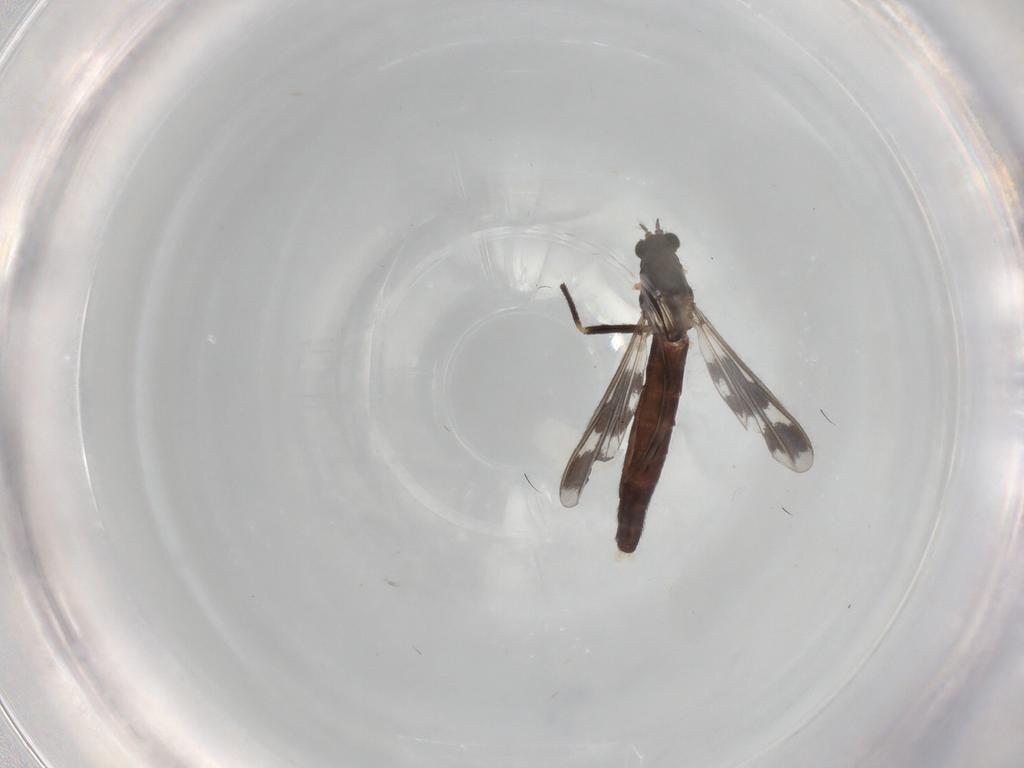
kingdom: Animalia
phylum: Arthropoda
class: Insecta
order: Diptera
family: Chironomidae
